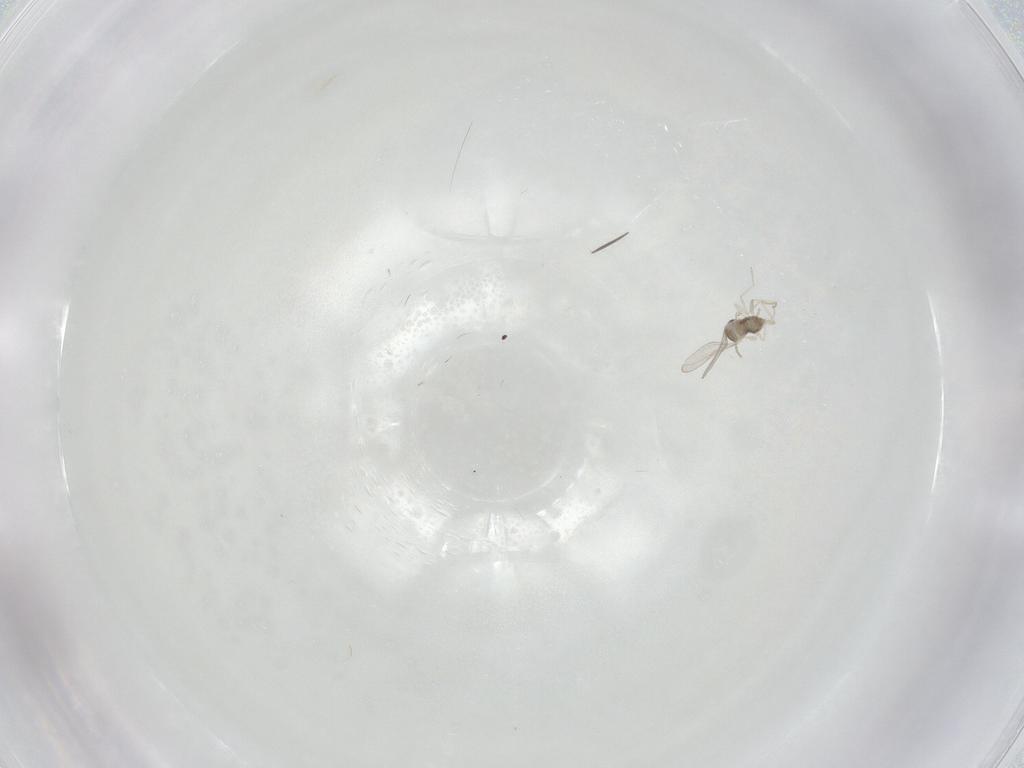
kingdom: Animalia
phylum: Arthropoda
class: Insecta
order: Diptera
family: Cecidomyiidae
